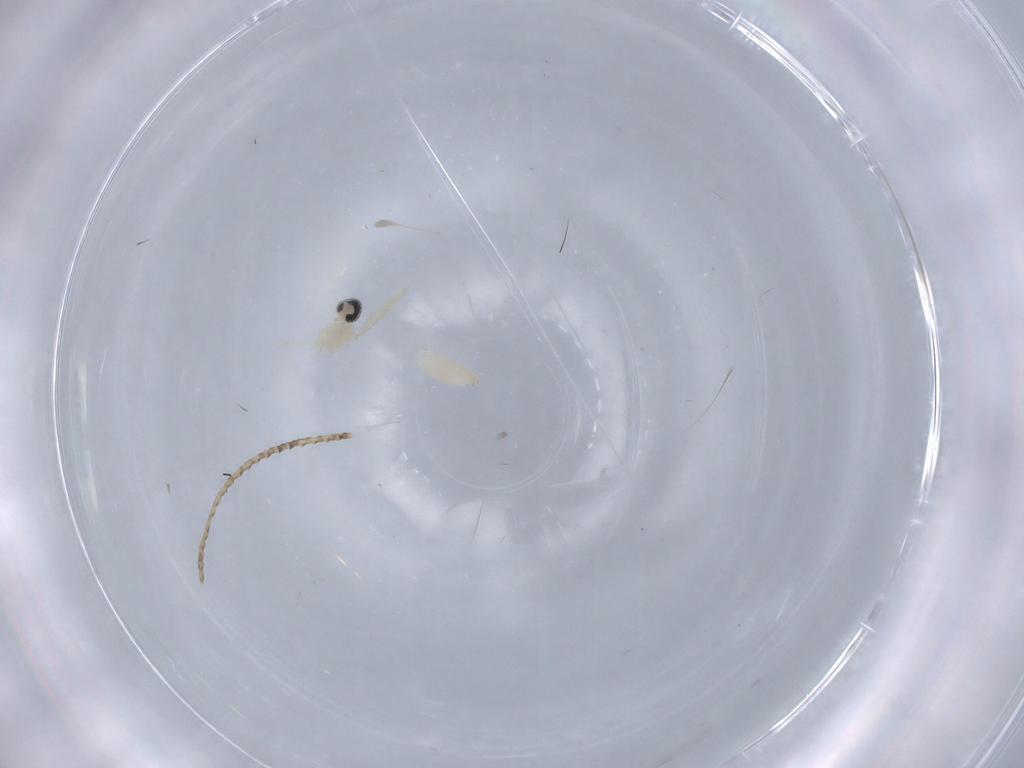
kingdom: Animalia
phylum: Arthropoda
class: Insecta
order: Diptera
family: Cecidomyiidae
